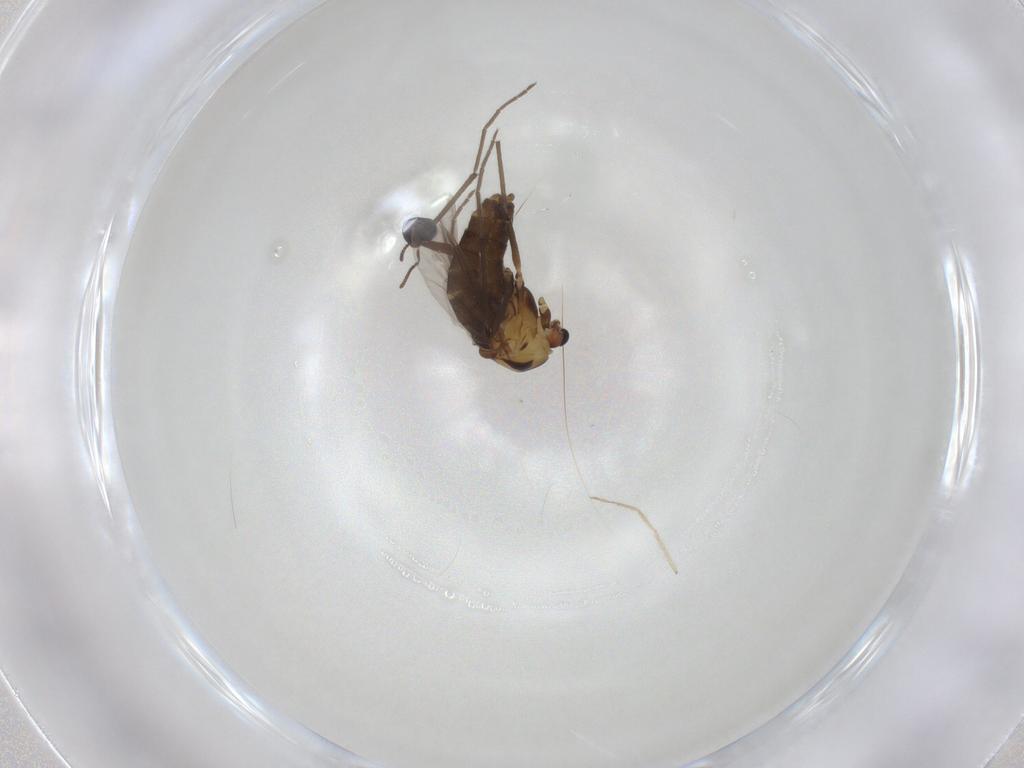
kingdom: Animalia
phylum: Arthropoda
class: Insecta
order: Diptera
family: Chironomidae
